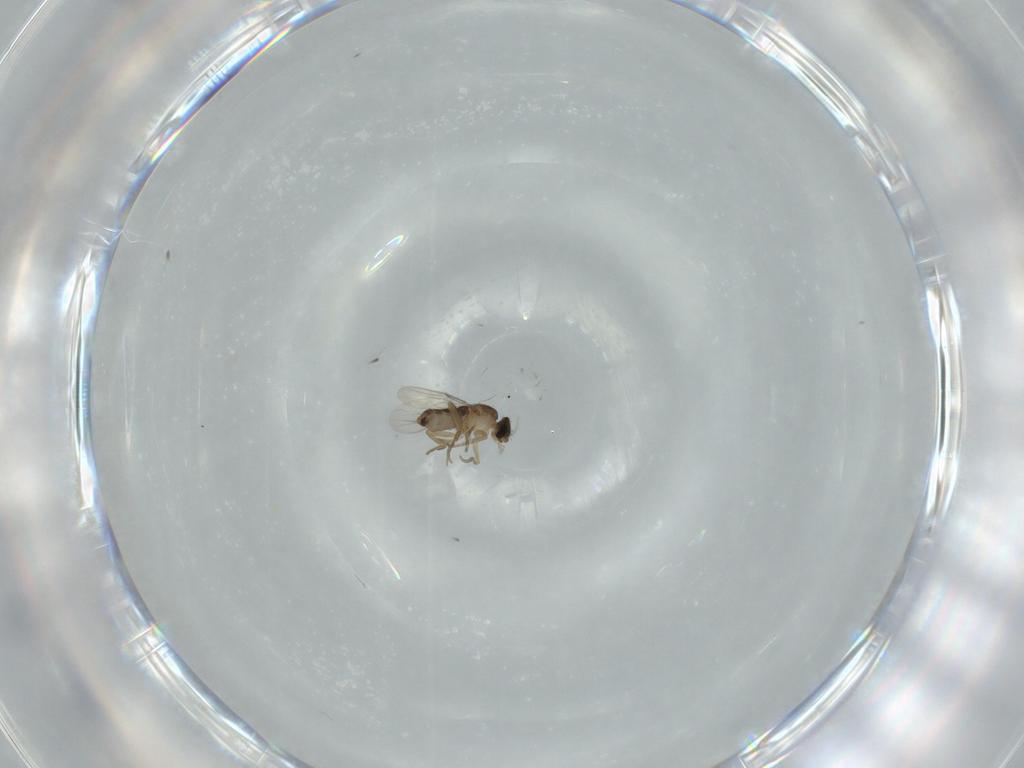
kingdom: Animalia
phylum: Arthropoda
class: Insecta
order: Diptera
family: Phoridae
